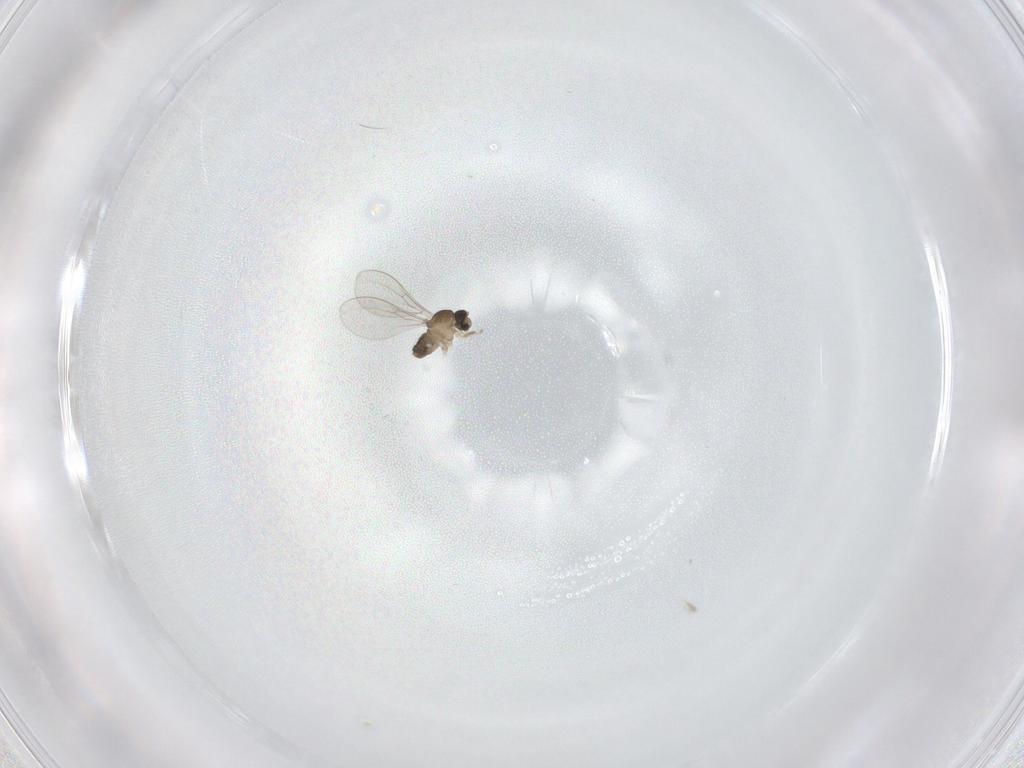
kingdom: Animalia
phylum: Arthropoda
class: Insecta
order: Diptera
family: Cecidomyiidae
